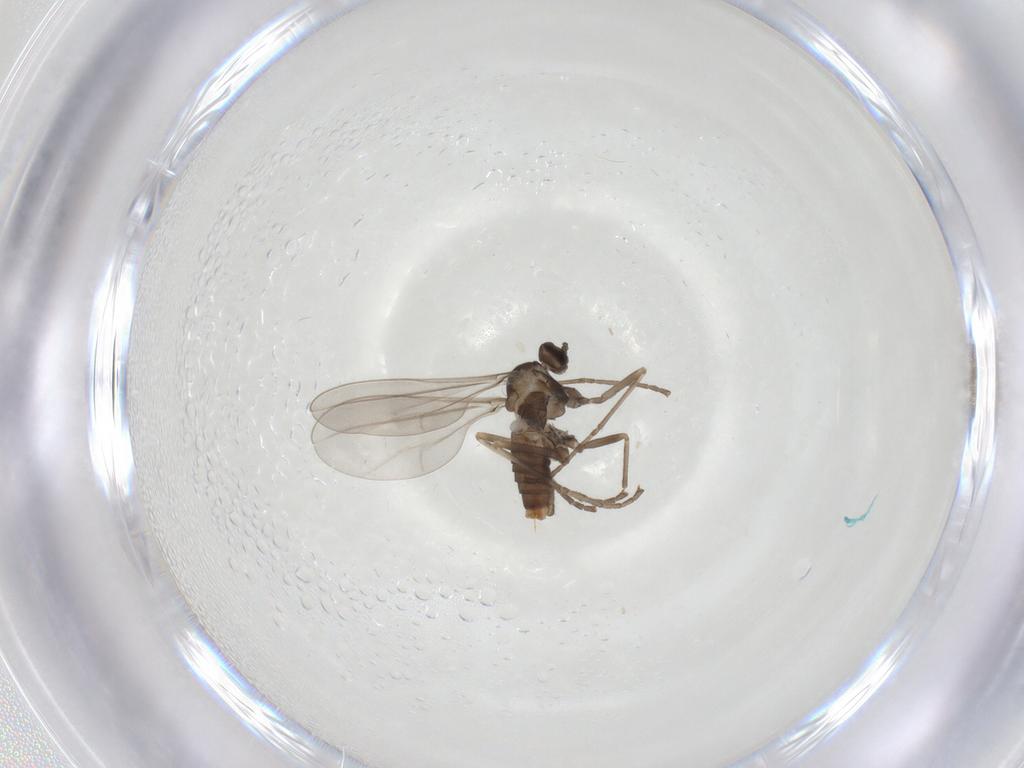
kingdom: Animalia
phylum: Arthropoda
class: Insecta
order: Diptera
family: Cecidomyiidae
